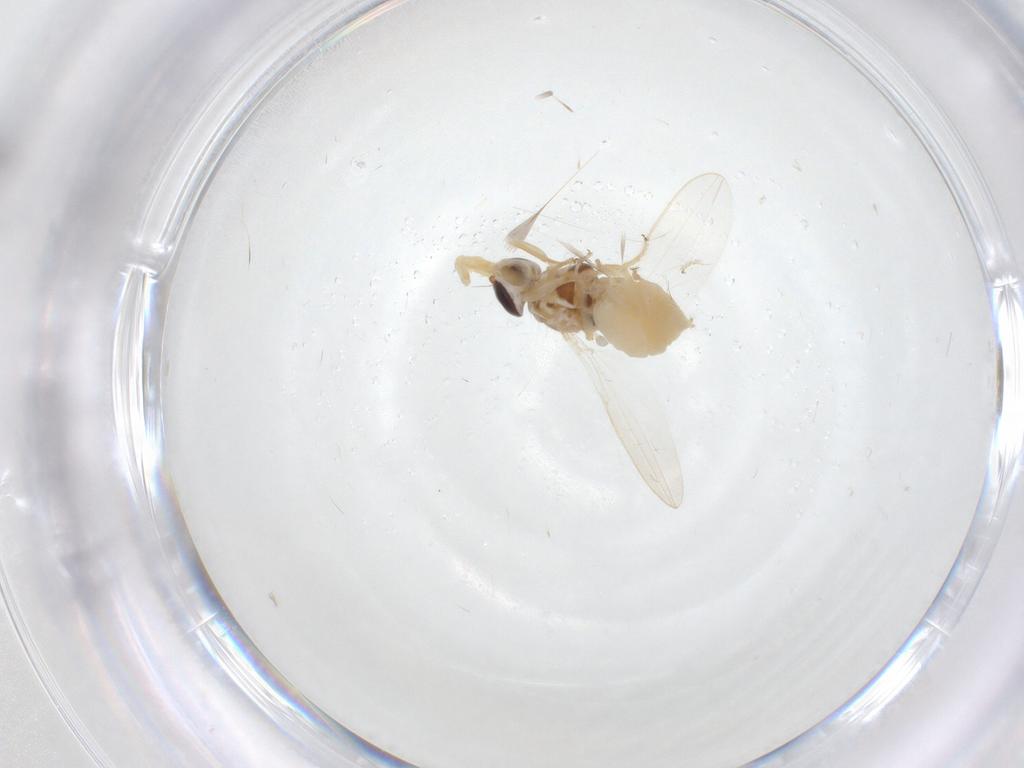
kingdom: Animalia
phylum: Arthropoda
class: Insecta
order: Diptera
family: Chloropidae
